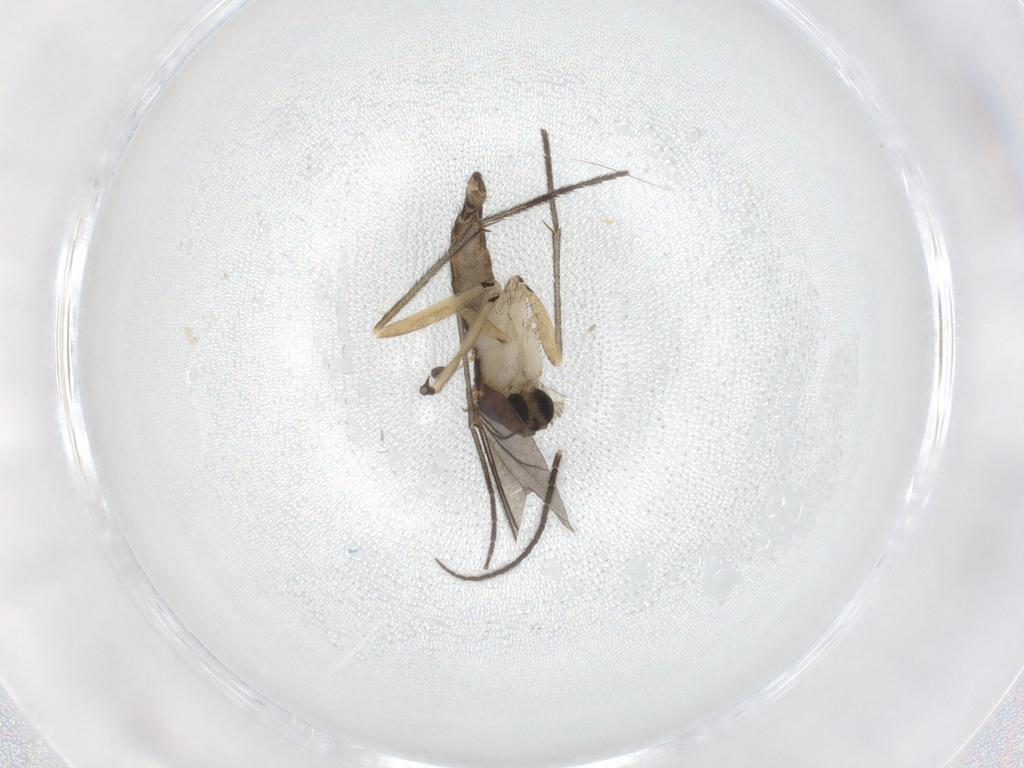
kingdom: Animalia
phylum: Arthropoda
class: Insecta
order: Diptera
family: Sciaridae
